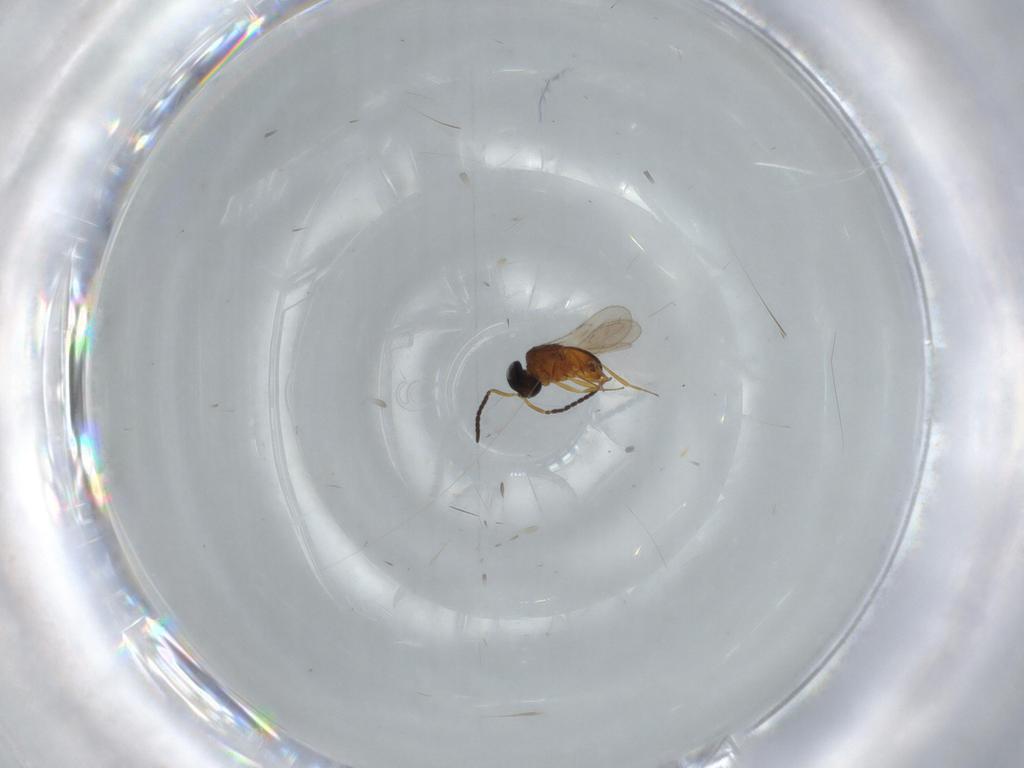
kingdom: Animalia
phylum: Arthropoda
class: Insecta
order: Hymenoptera
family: Scelionidae
